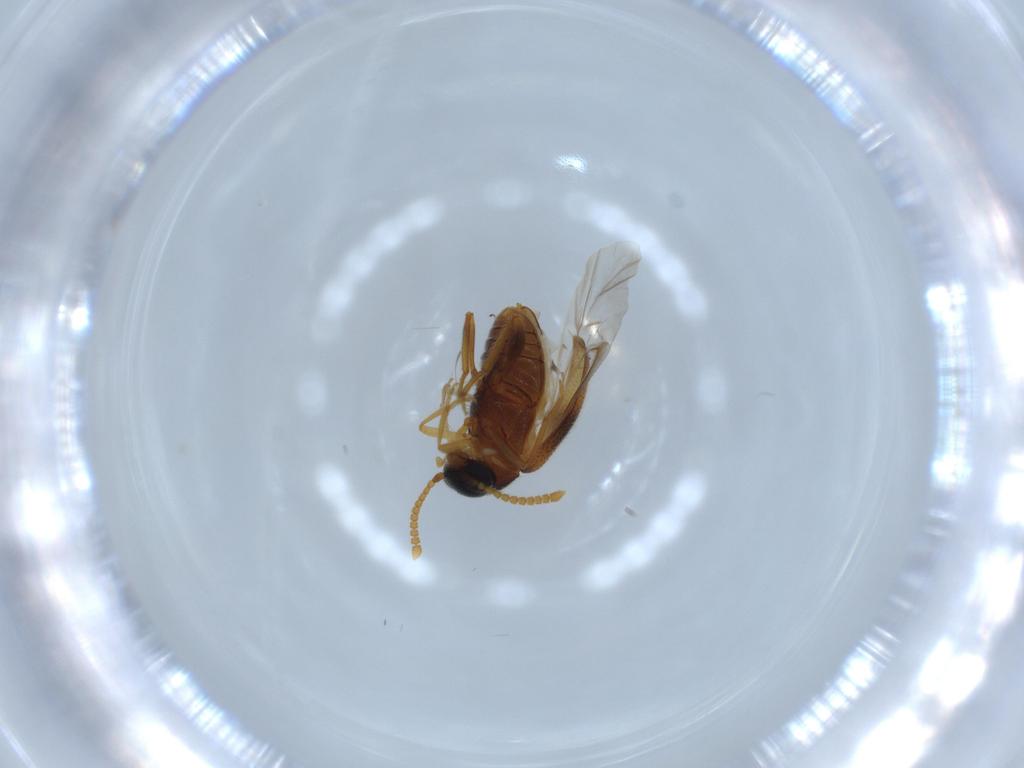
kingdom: Animalia
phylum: Arthropoda
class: Insecta
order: Coleoptera
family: Aderidae
